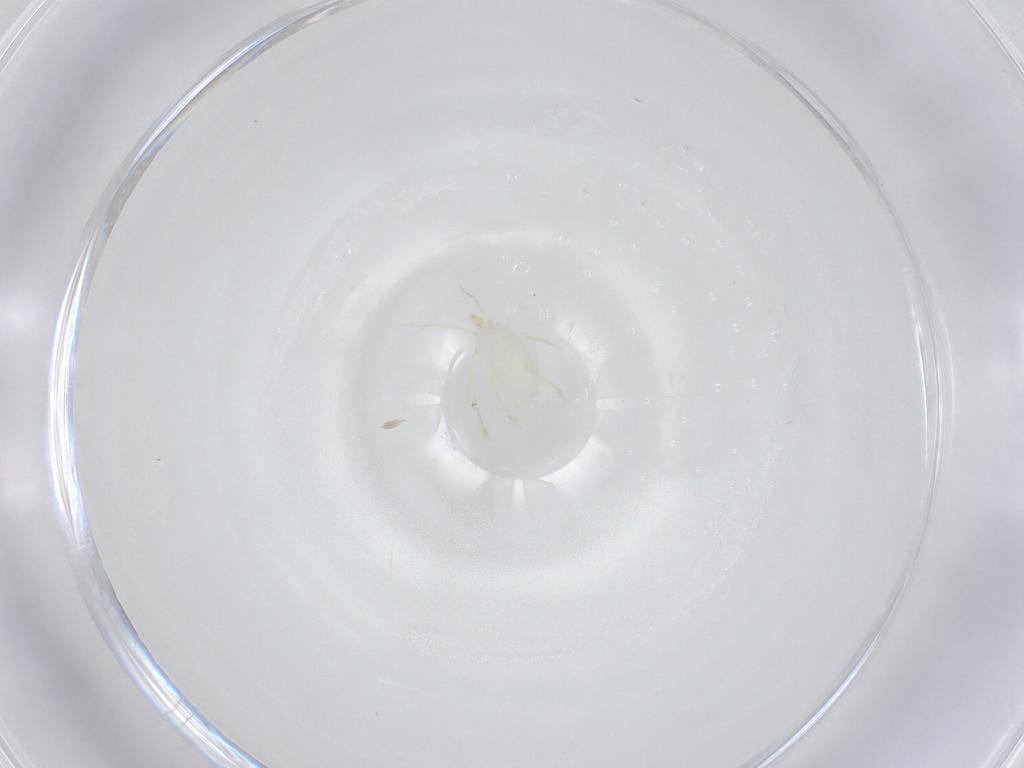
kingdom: Animalia
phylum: Arthropoda
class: Arachnida
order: Trombidiformes
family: Erythraeidae
